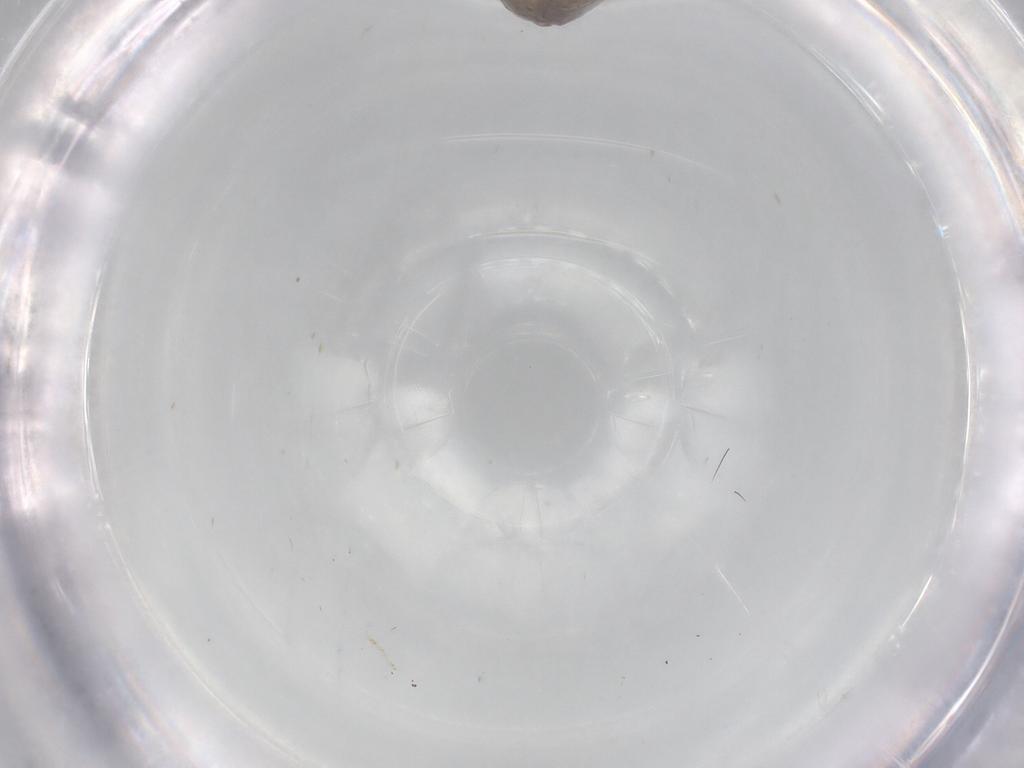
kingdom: Animalia
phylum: Arthropoda
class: Insecta
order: Lepidoptera
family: Psychidae
